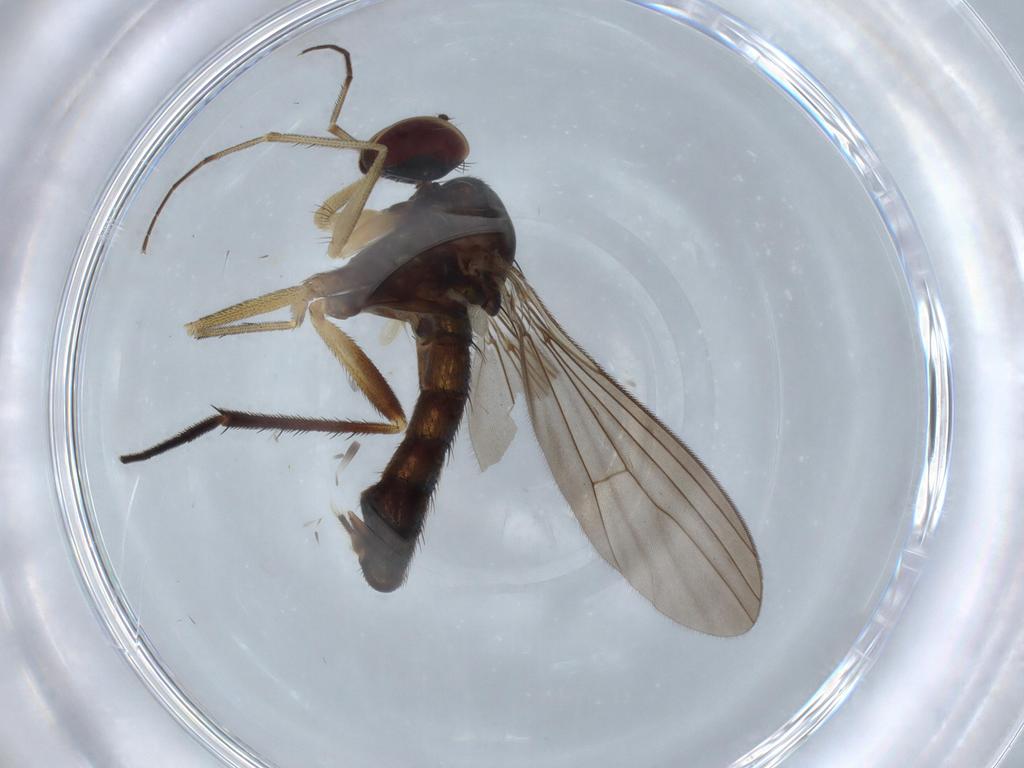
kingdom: Animalia
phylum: Arthropoda
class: Insecta
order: Diptera
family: Dolichopodidae
